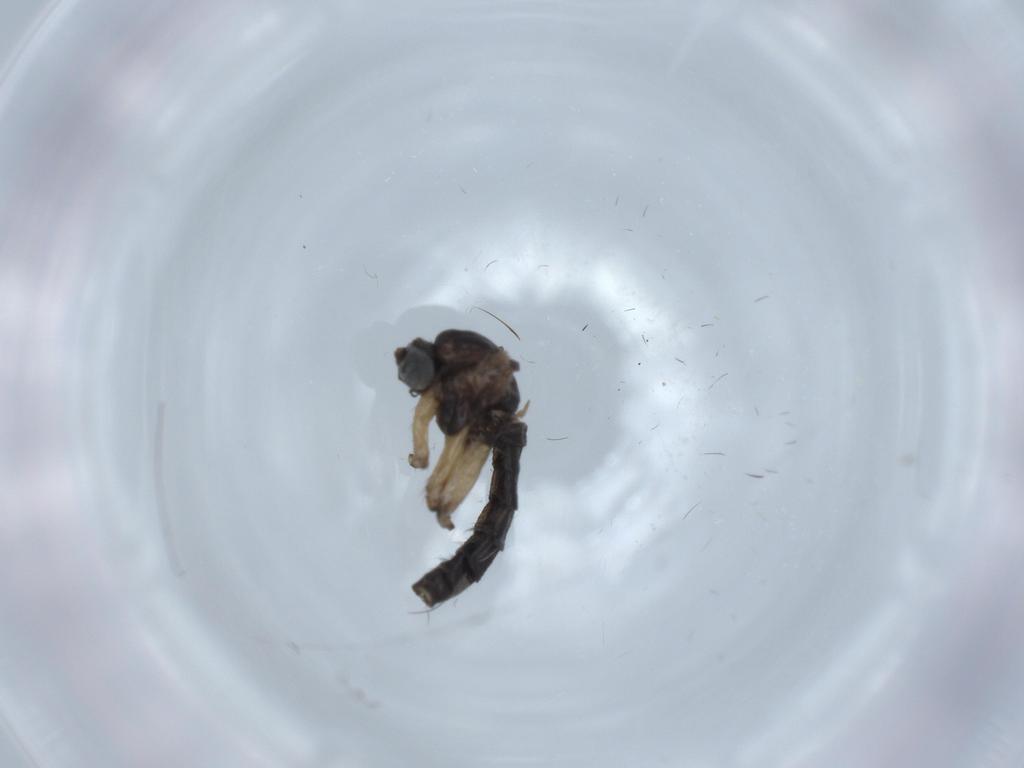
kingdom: Animalia
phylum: Arthropoda
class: Insecta
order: Diptera
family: Sciaridae
